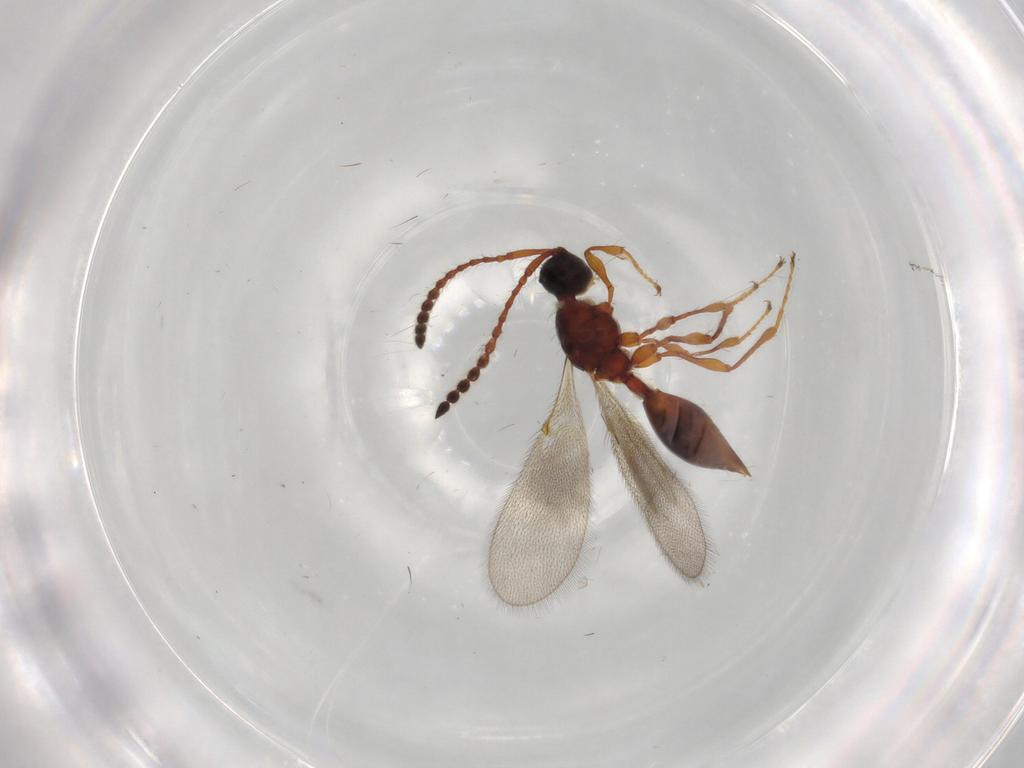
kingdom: Animalia
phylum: Arthropoda
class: Insecta
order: Hymenoptera
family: Diapriidae
